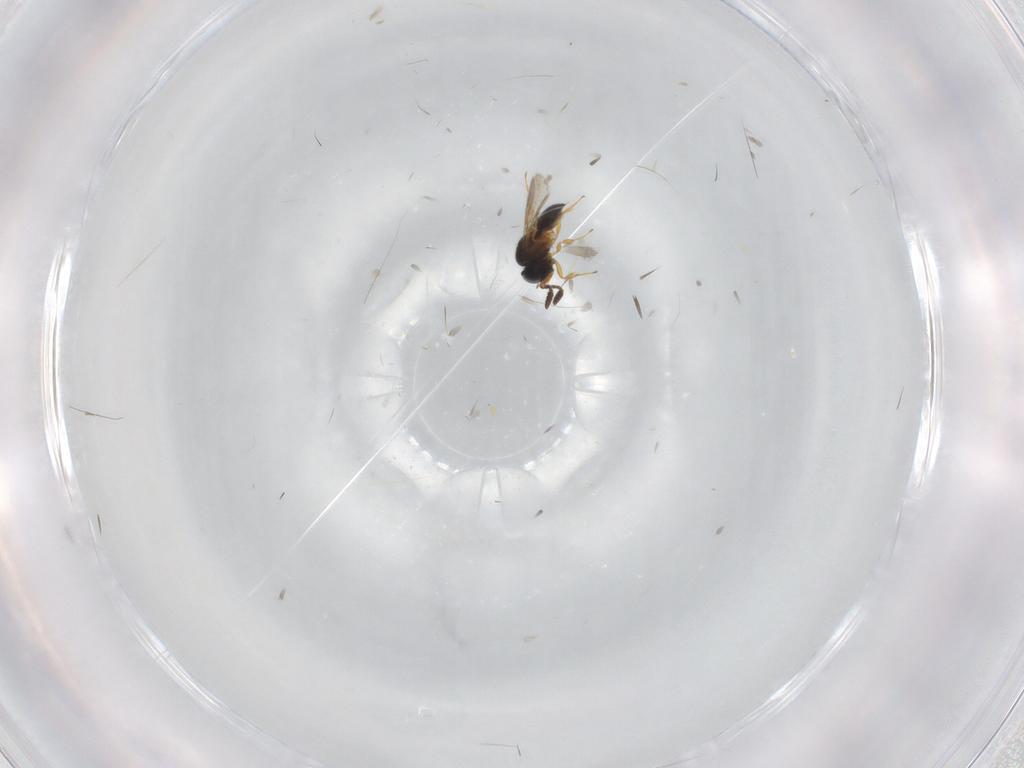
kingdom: Animalia
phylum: Arthropoda
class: Insecta
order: Hymenoptera
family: Scelionidae
